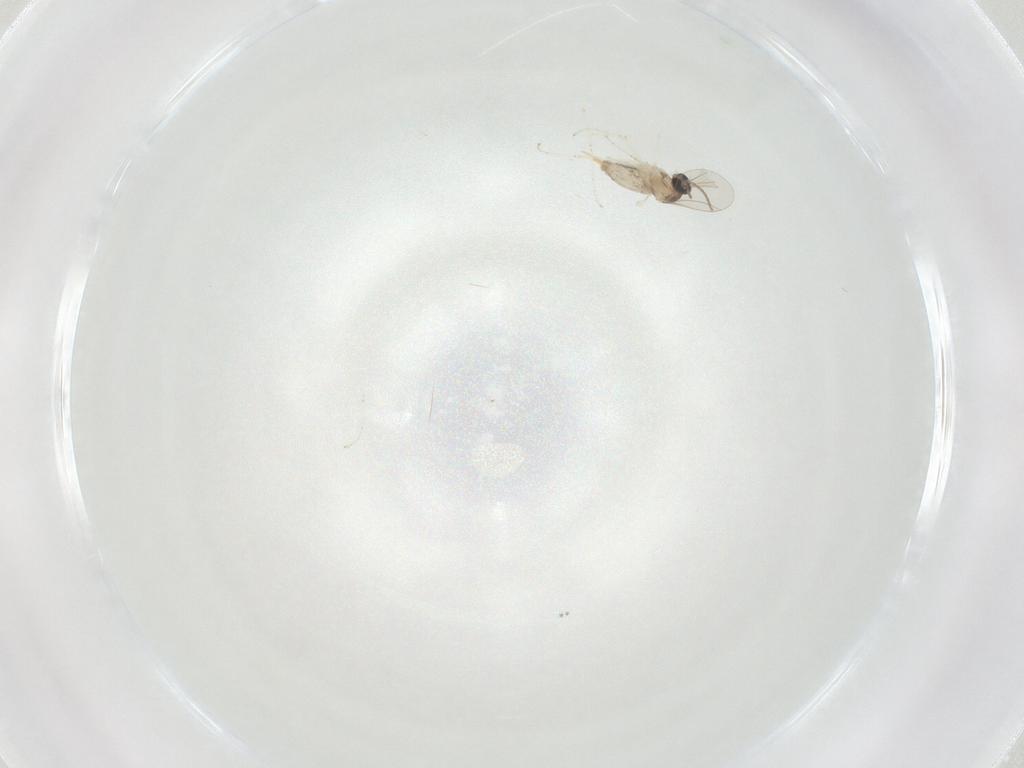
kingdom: Animalia
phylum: Arthropoda
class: Insecta
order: Diptera
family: Cecidomyiidae
